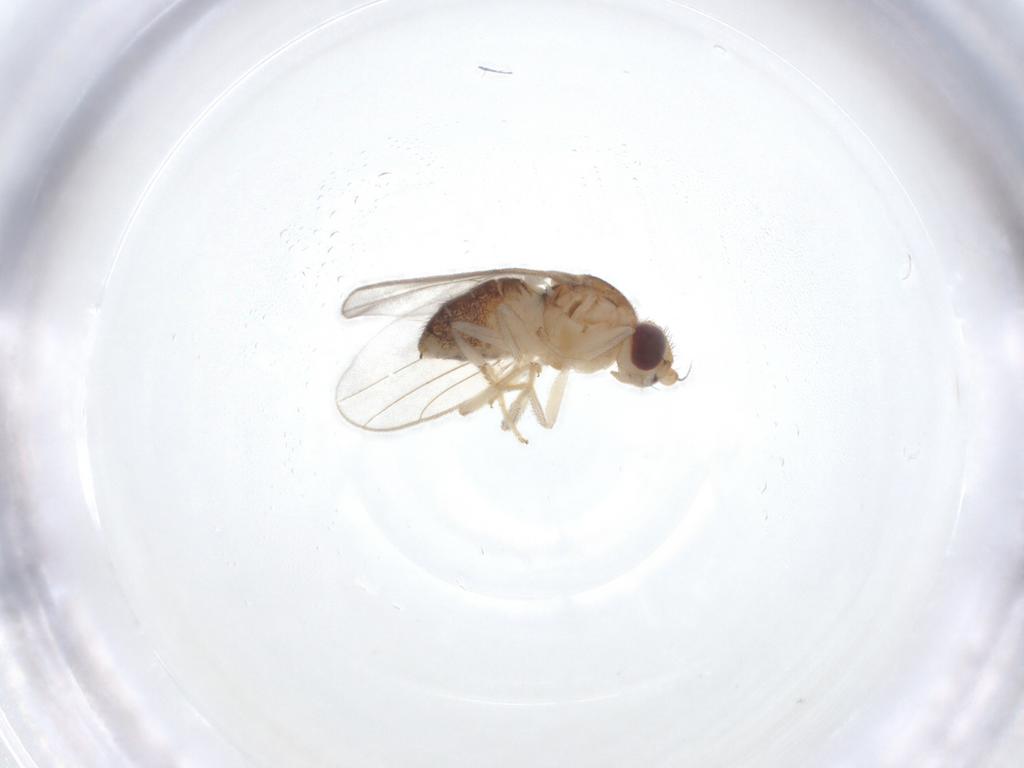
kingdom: Animalia
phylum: Arthropoda
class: Insecta
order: Diptera
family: Chloropidae
